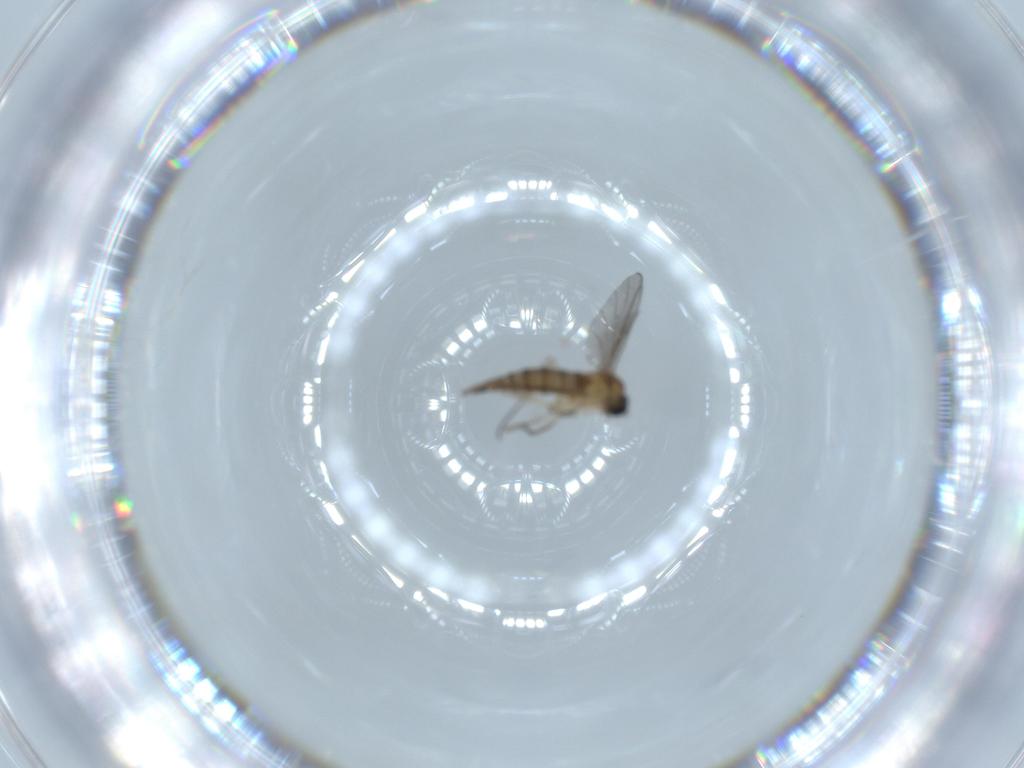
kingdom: Animalia
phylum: Arthropoda
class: Insecta
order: Diptera
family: Sciaridae
